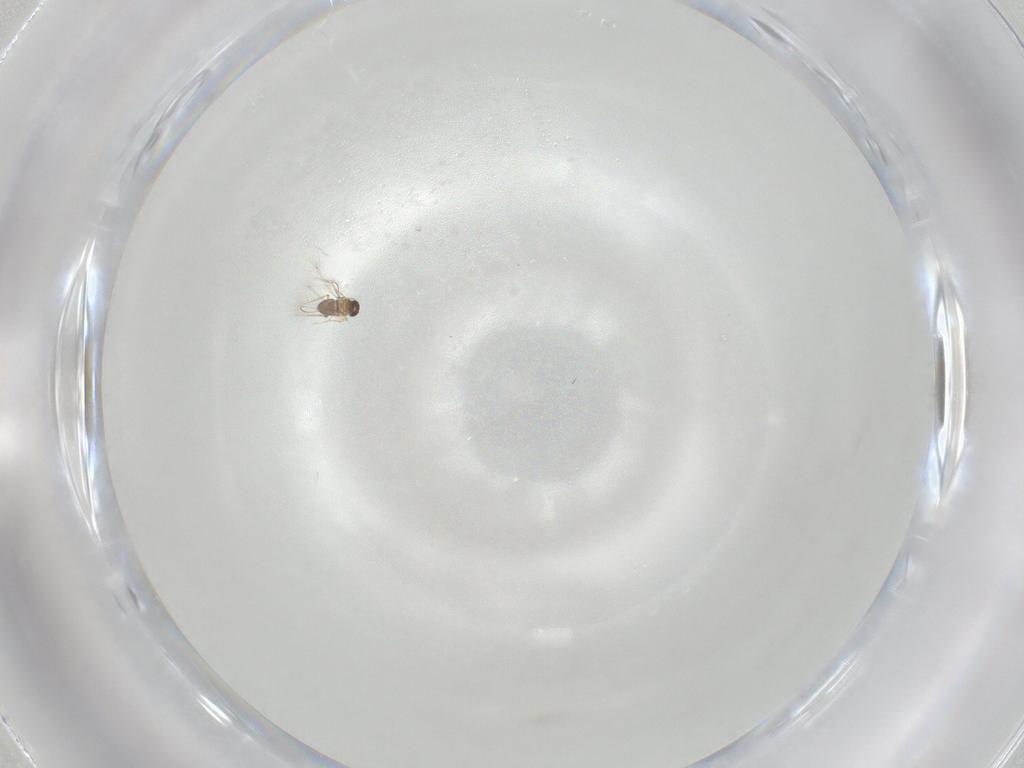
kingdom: Animalia
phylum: Arthropoda
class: Insecta
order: Hymenoptera
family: Scelionidae
